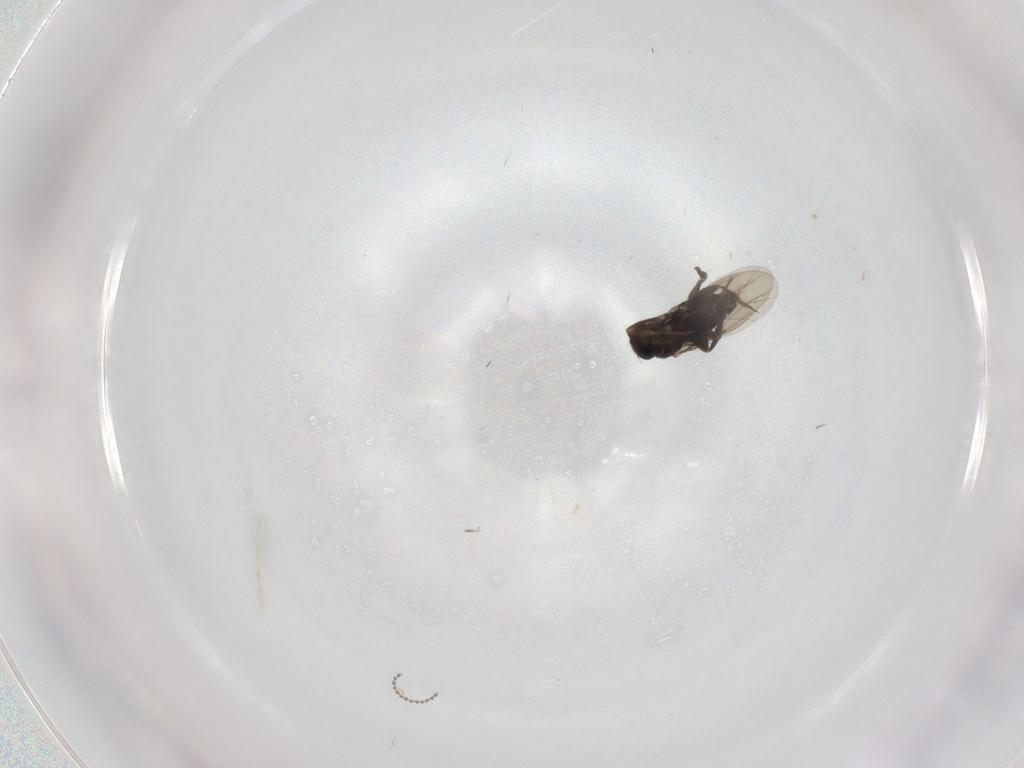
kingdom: Animalia
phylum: Arthropoda
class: Insecta
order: Diptera
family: Phoridae
